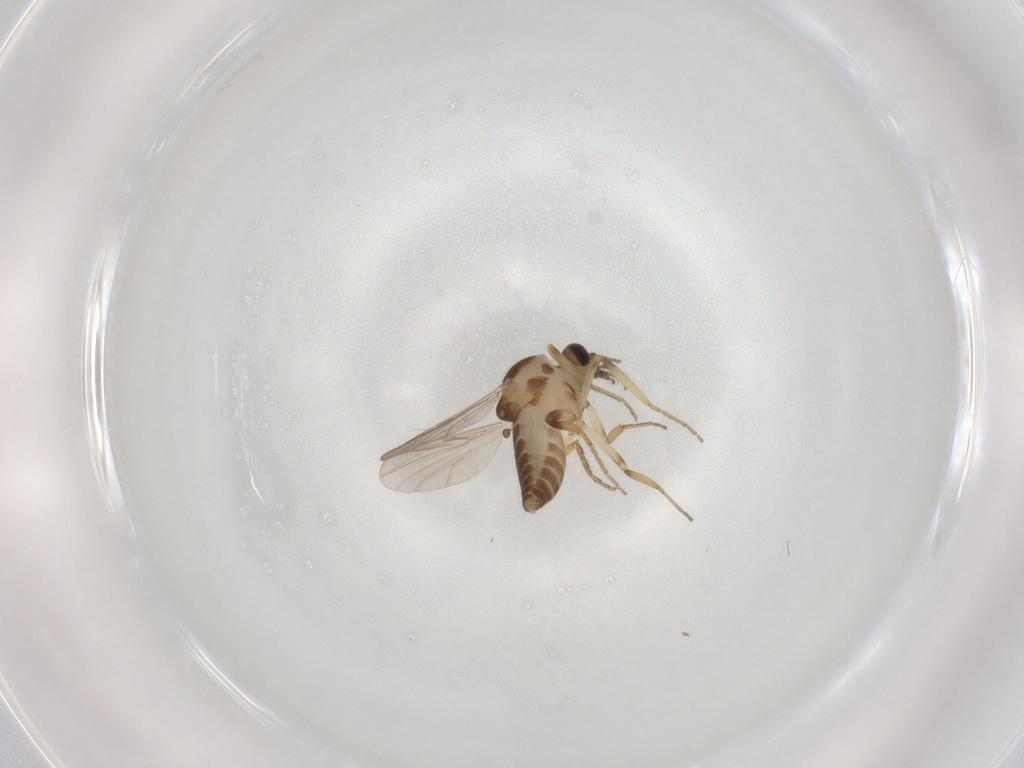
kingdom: Animalia
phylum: Arthropoda
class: Insecta
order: Diptera
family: Ceratopogonidae
